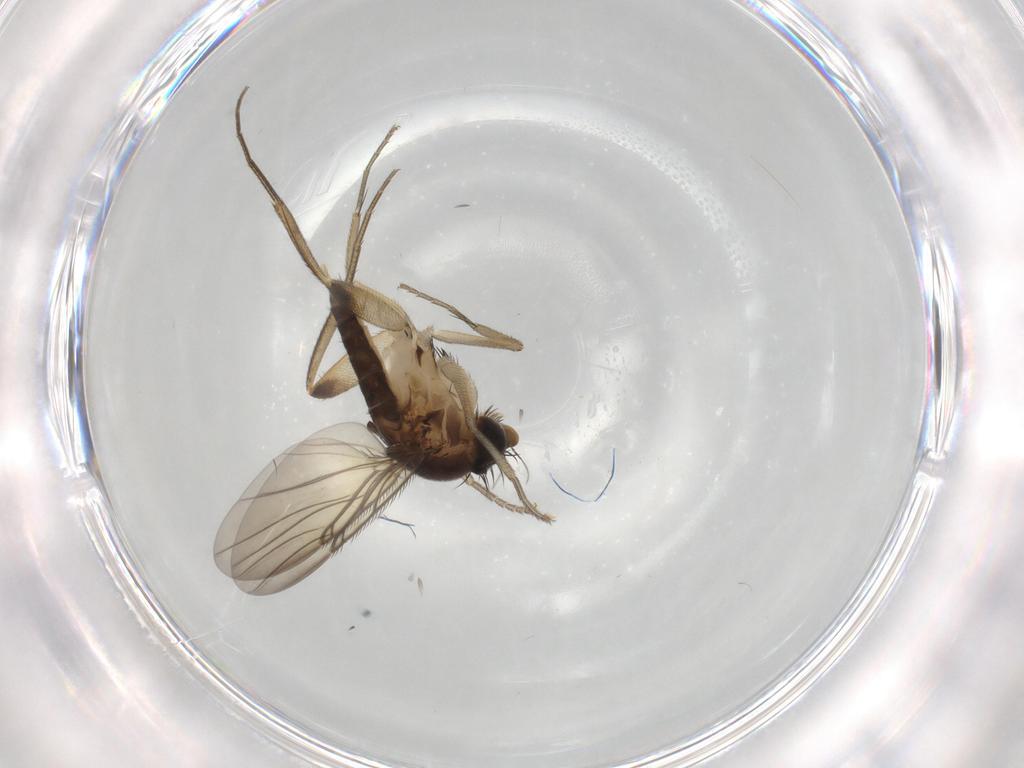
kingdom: Animalia
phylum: Arthropoda
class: Insecta
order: Diptera
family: Phoridae
